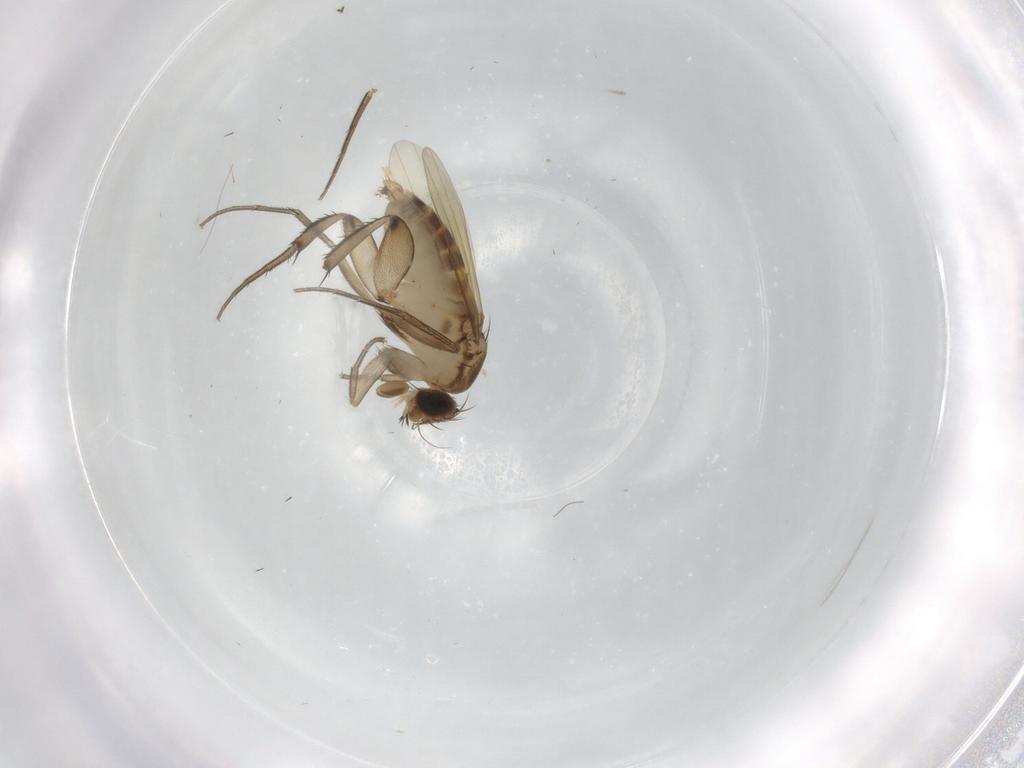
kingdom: Animalia
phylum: Arthropoda
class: Insecta
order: Diptera
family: Phoridae
